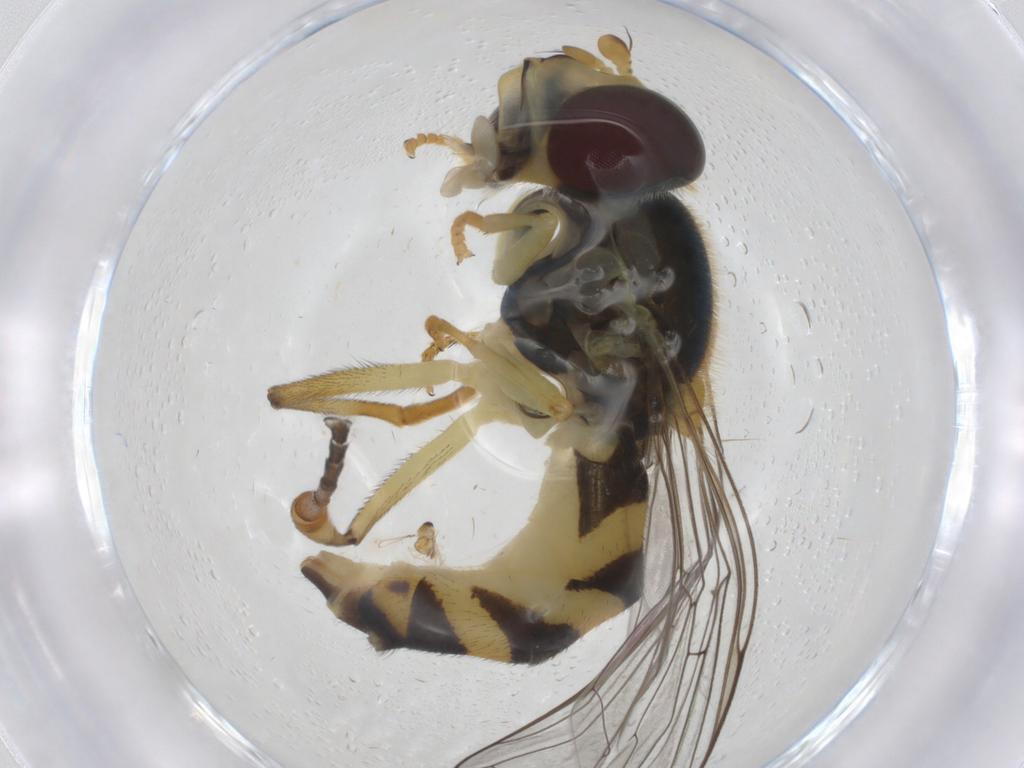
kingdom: Animalia
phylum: Arthropoda
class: Insecta
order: Diptera
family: Syrphidae
